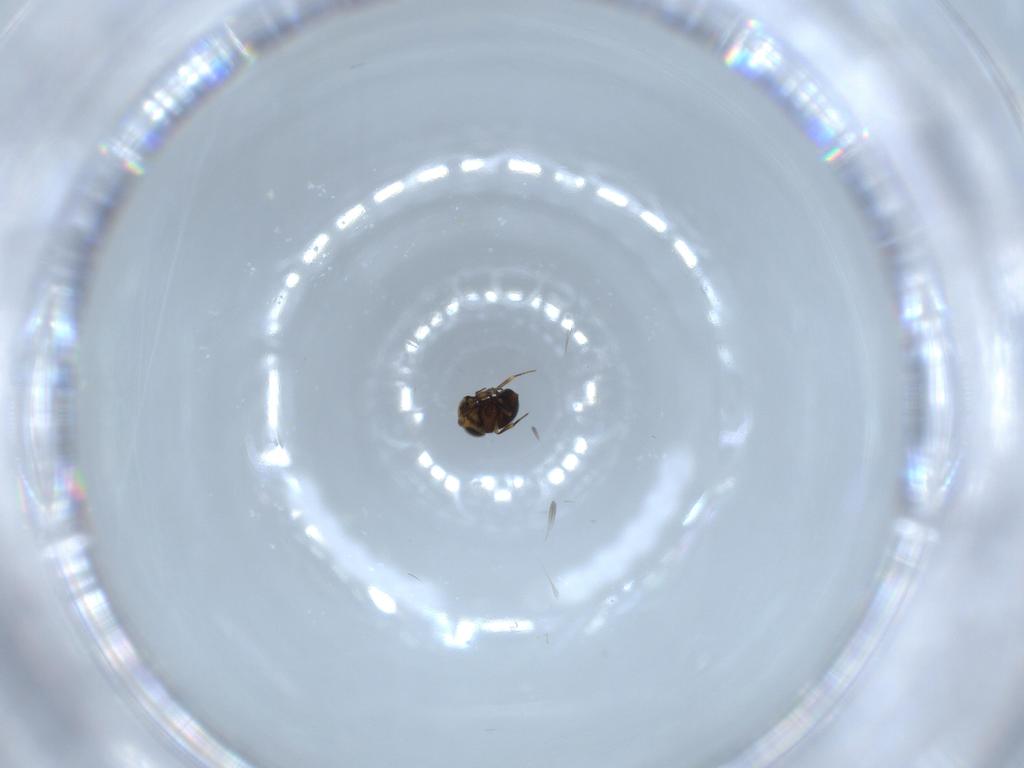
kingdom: Animalia
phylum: Arthropoda
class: Insecta
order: Hymenoptera
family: Scelionidae
